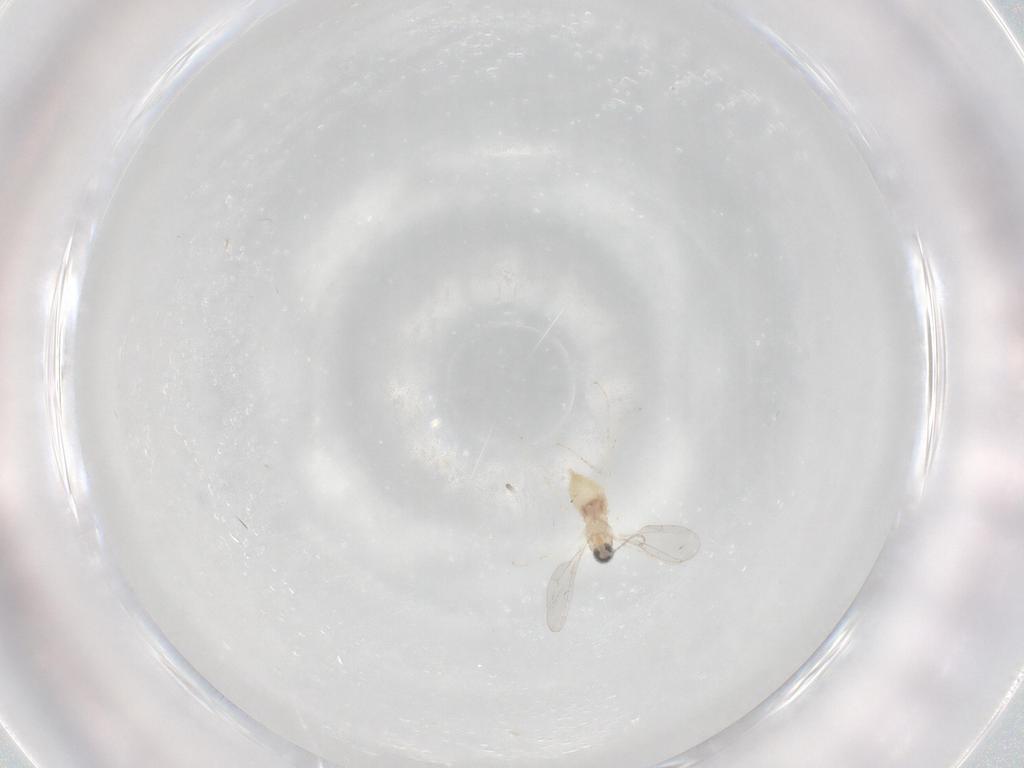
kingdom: Animalia
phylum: Arthropoda
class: Insecta
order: Diptera
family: Cecidomyiidae
